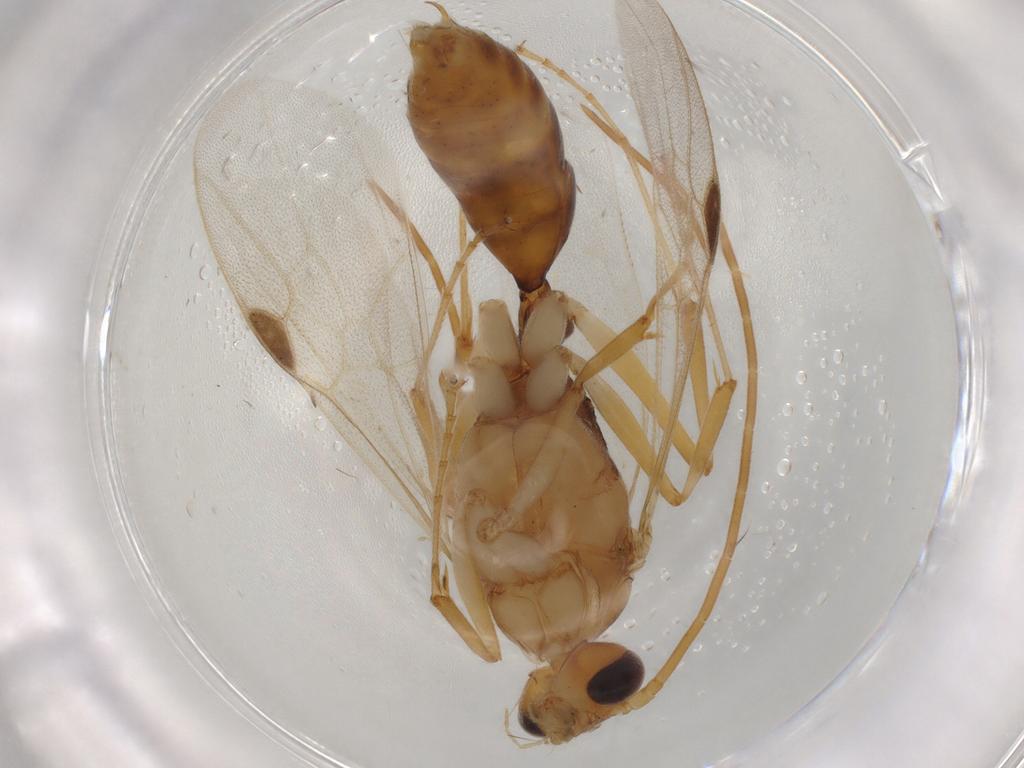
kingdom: Animalia
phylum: Arthropoda
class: Insecta
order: Hymenoptera
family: Formicidae
